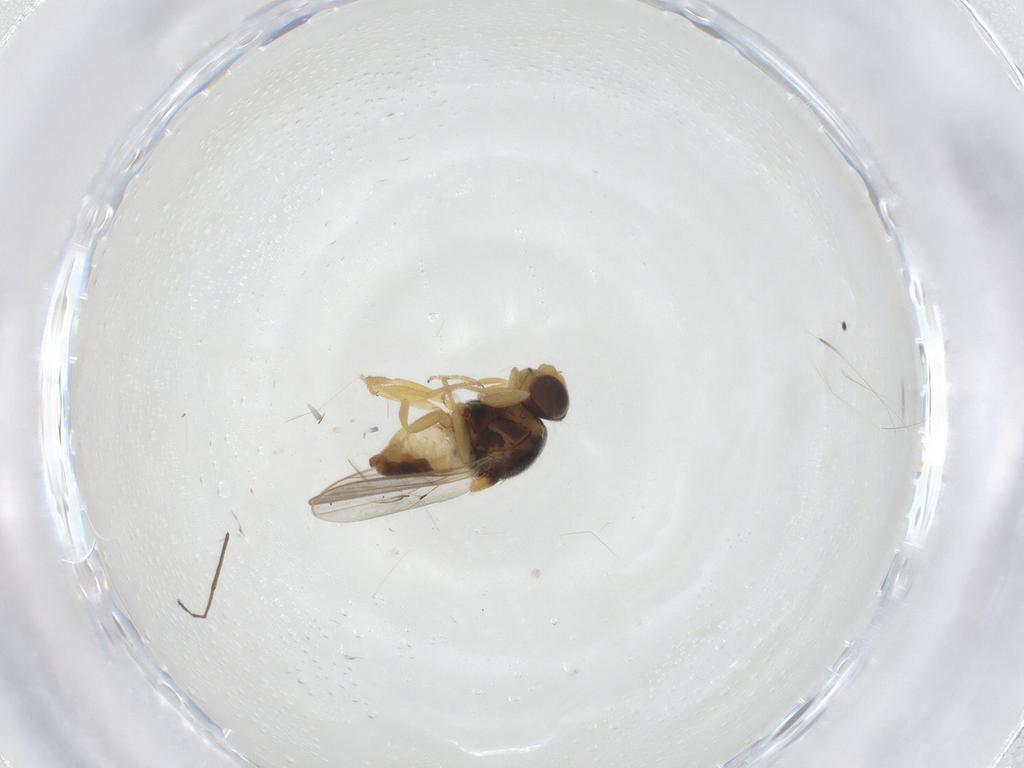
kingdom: Animalia
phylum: Arthropoda
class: Insecta
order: Diptera
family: Chloropidae
